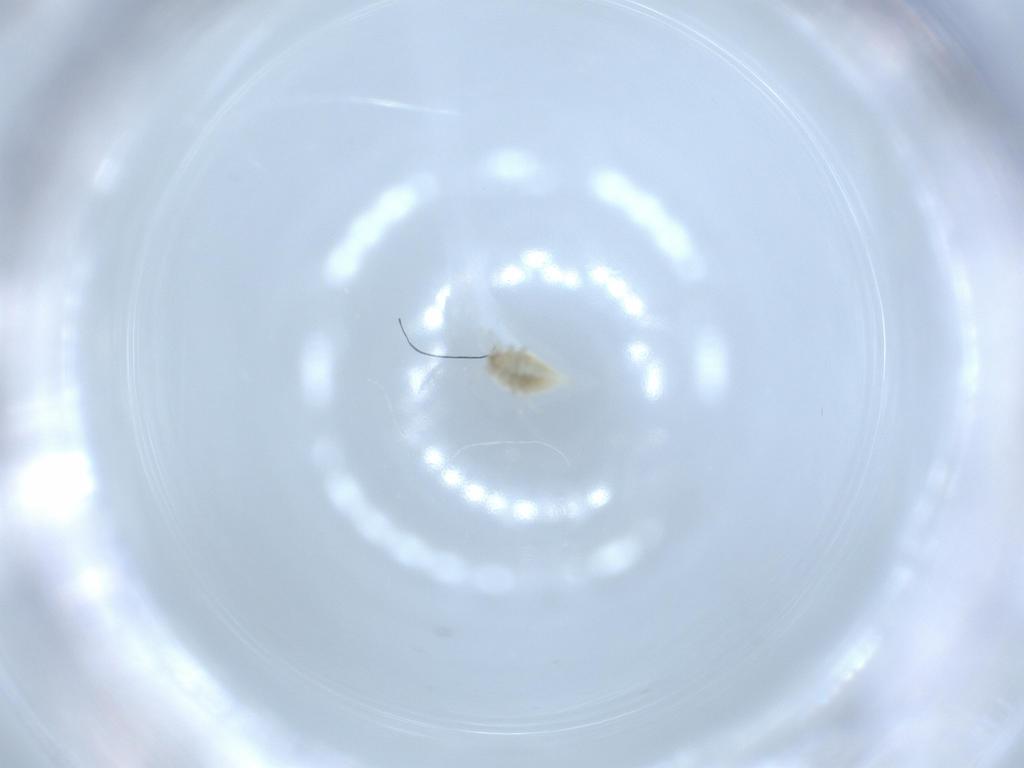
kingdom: Animalia
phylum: Arthropoda
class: Insecta
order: Neuroptera
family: Coniopterygidae
